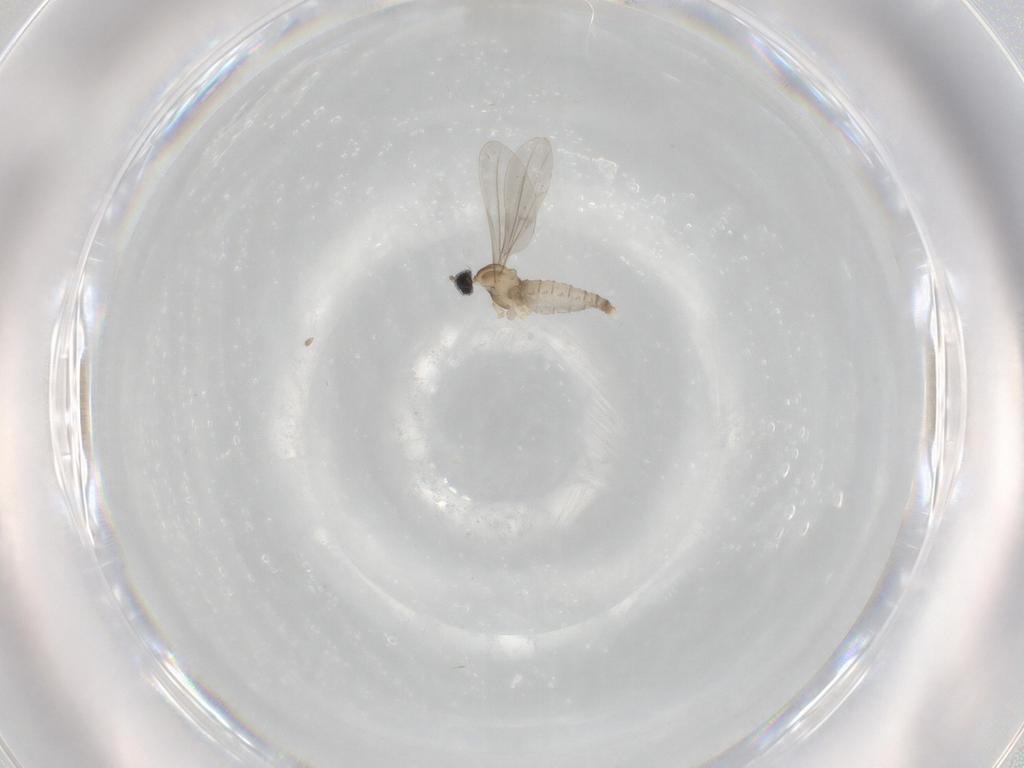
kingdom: Animalia
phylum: Arthropoda
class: Insecta
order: Diptera
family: Cecidomyiidae
